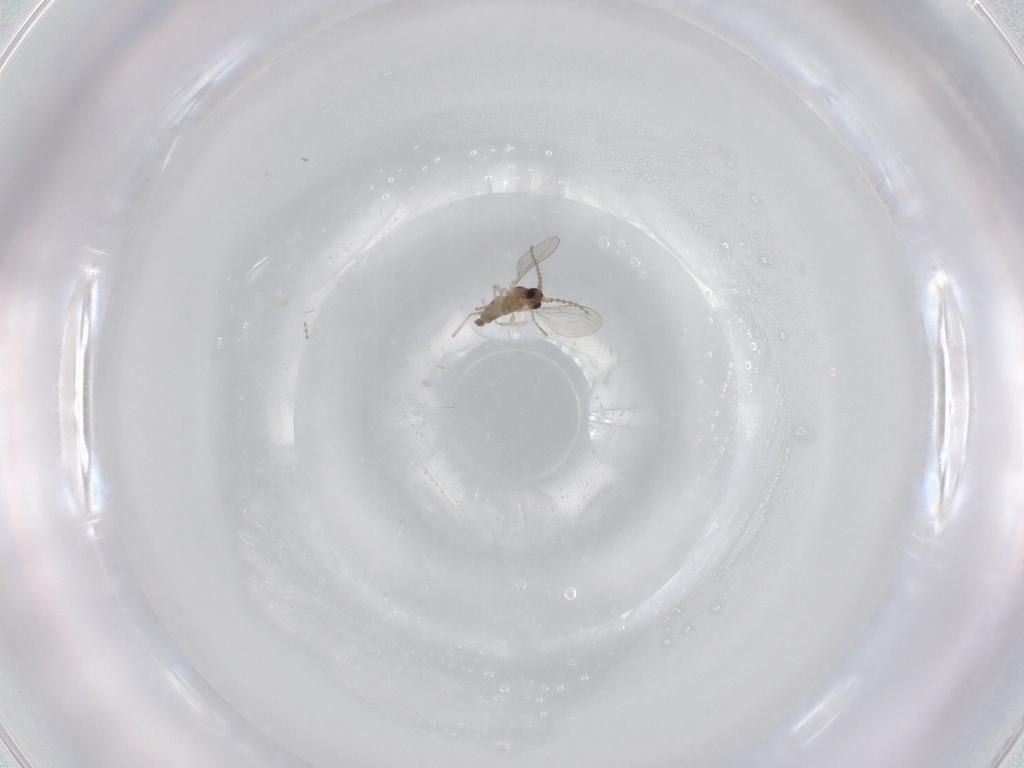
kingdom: Animalia
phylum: Arthropoda
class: Insecta
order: Diptera
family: Cecidomyiidae
